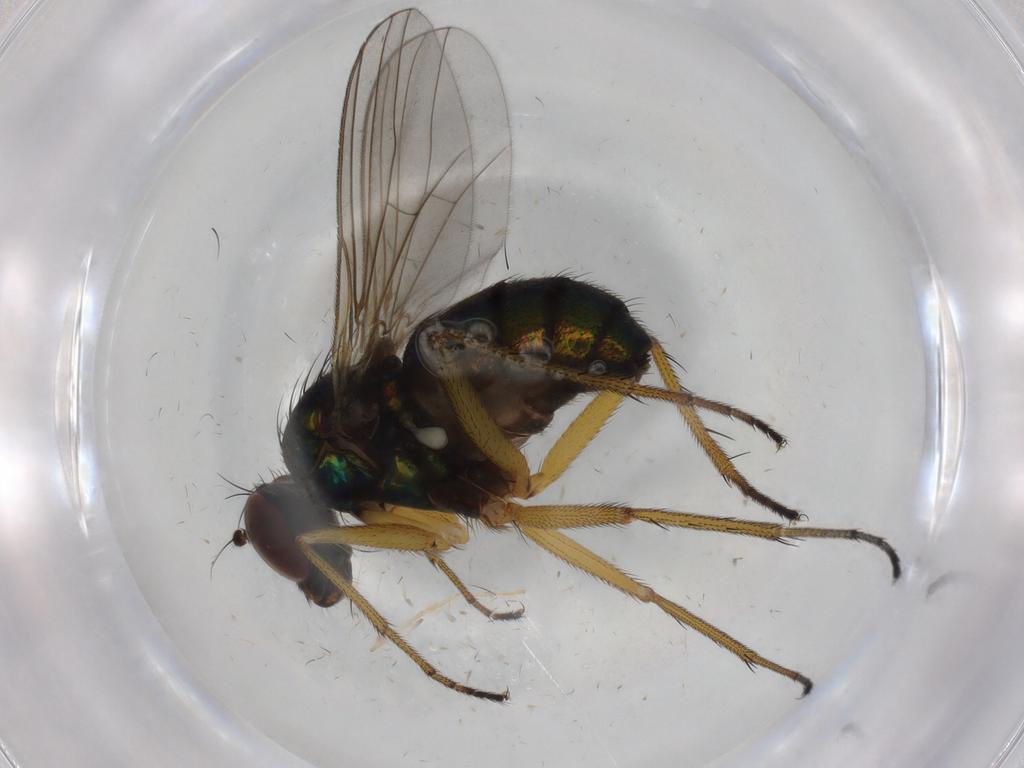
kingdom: Animalia
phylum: Arthropoda
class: Insecta
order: Diptera
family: Chironomidae
